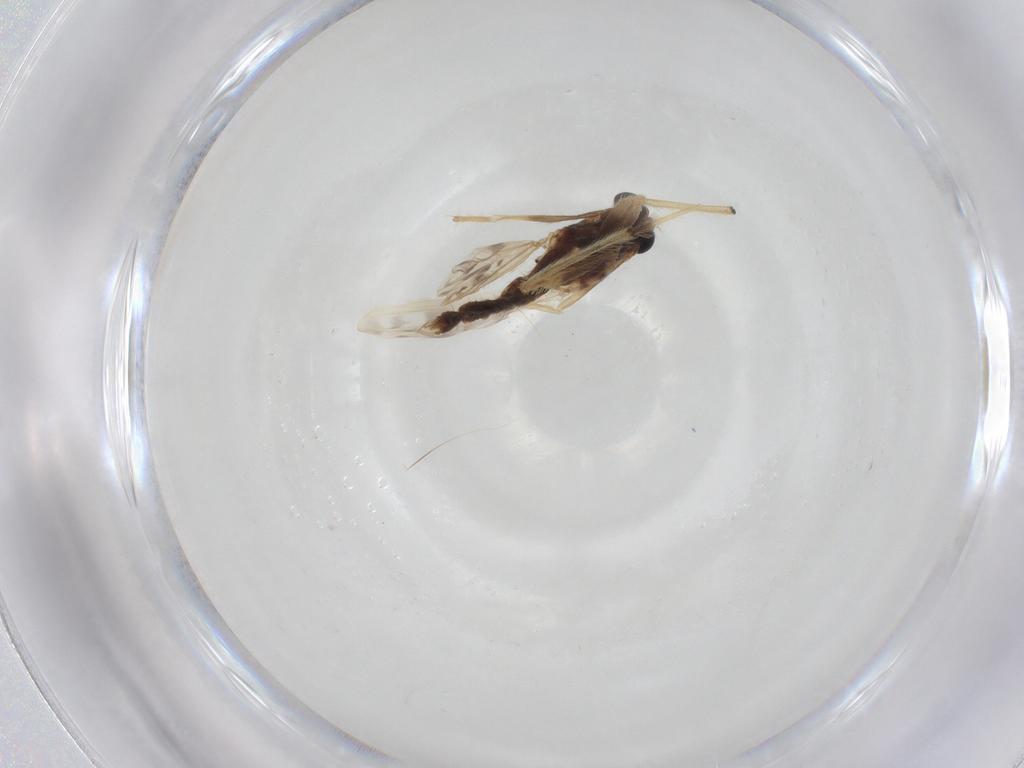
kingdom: Animalia
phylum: Arthropoda
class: Insecta
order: Diptera
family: Chironomidae
